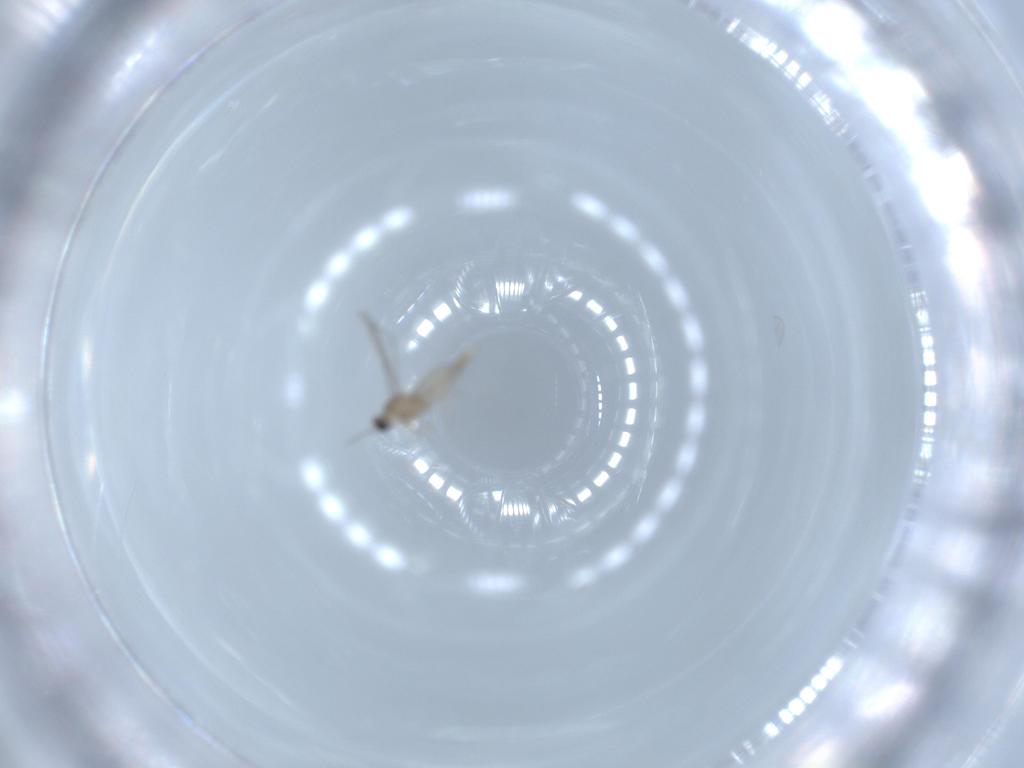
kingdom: Animalia
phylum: Arthropoda
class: Insecta
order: Diptera
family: Cecidomyiidae
